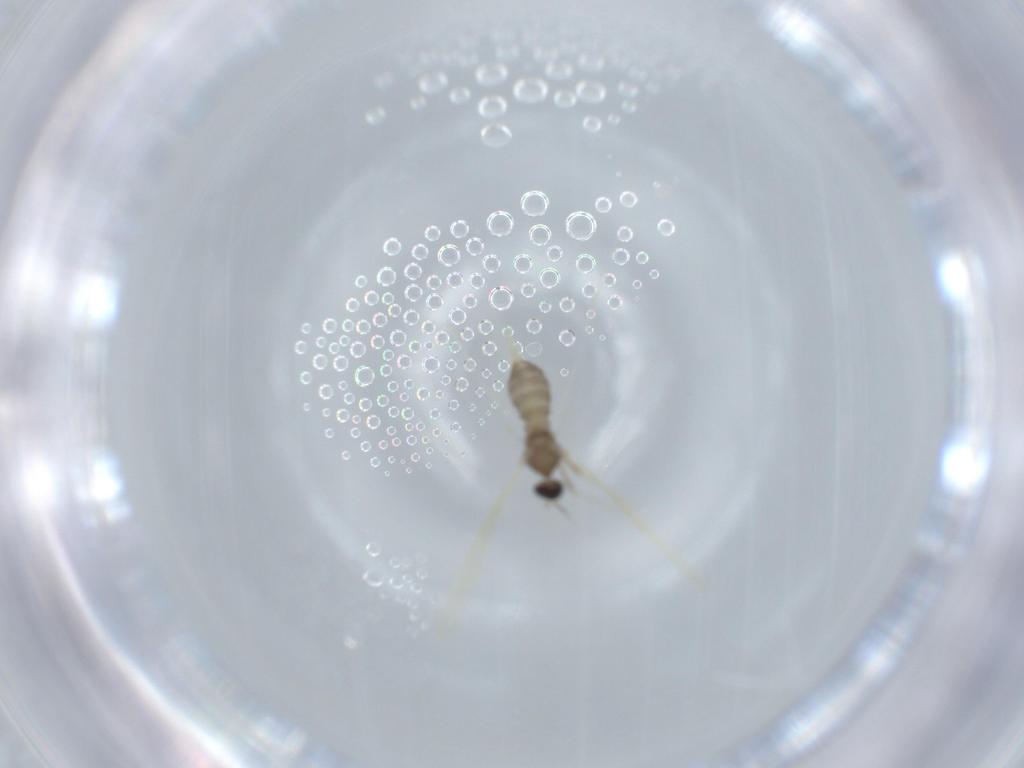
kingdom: Animalia
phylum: Arthropoda
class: Insecta
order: Diptera
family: Cecidomyiidae
